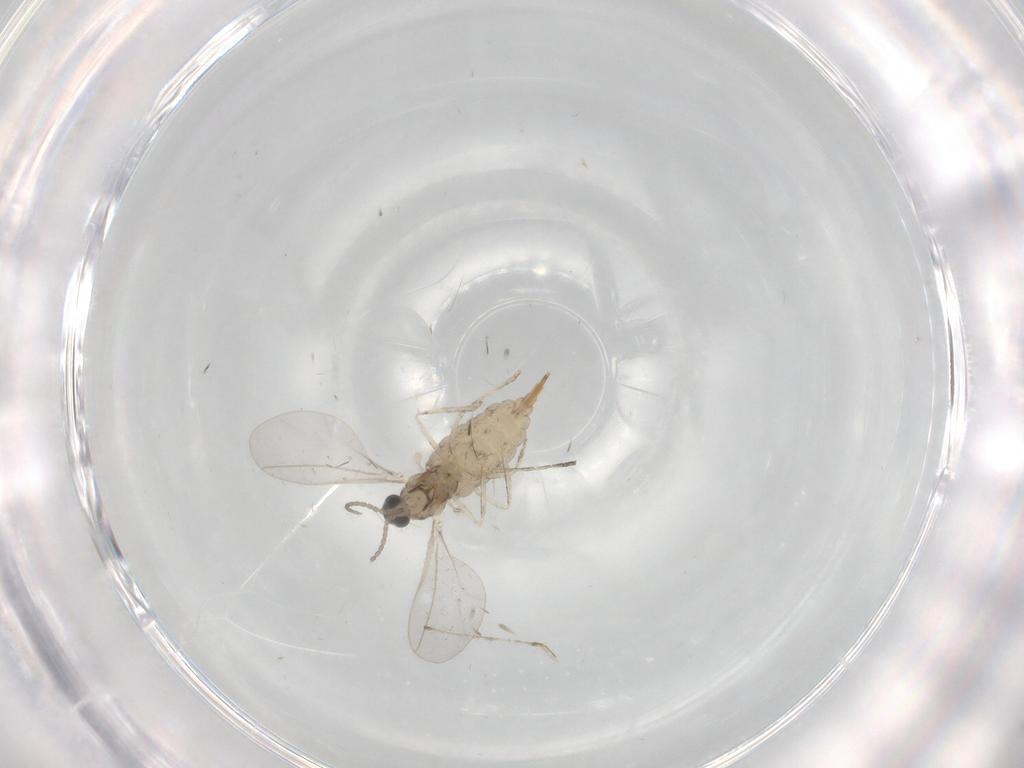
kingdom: Animalia
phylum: Arthropoda
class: Insecta
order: Diptera
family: Cecidomyiidae
